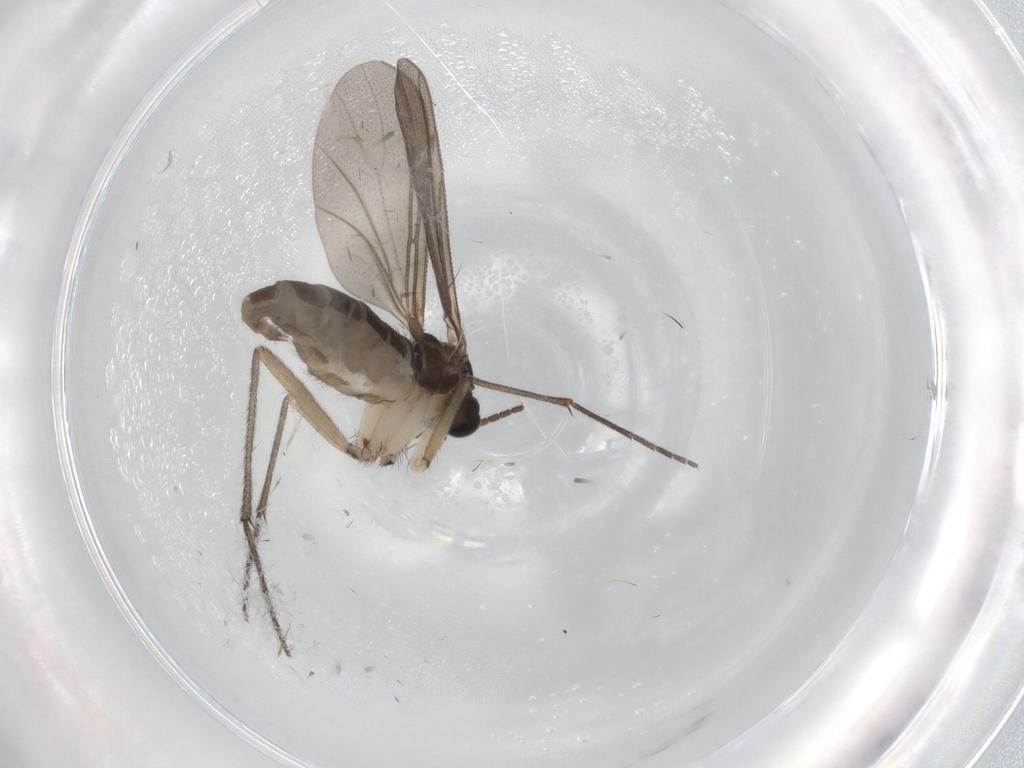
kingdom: Animalia
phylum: Arthropoda
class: Insecta
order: Diptera
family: Sciaridae
